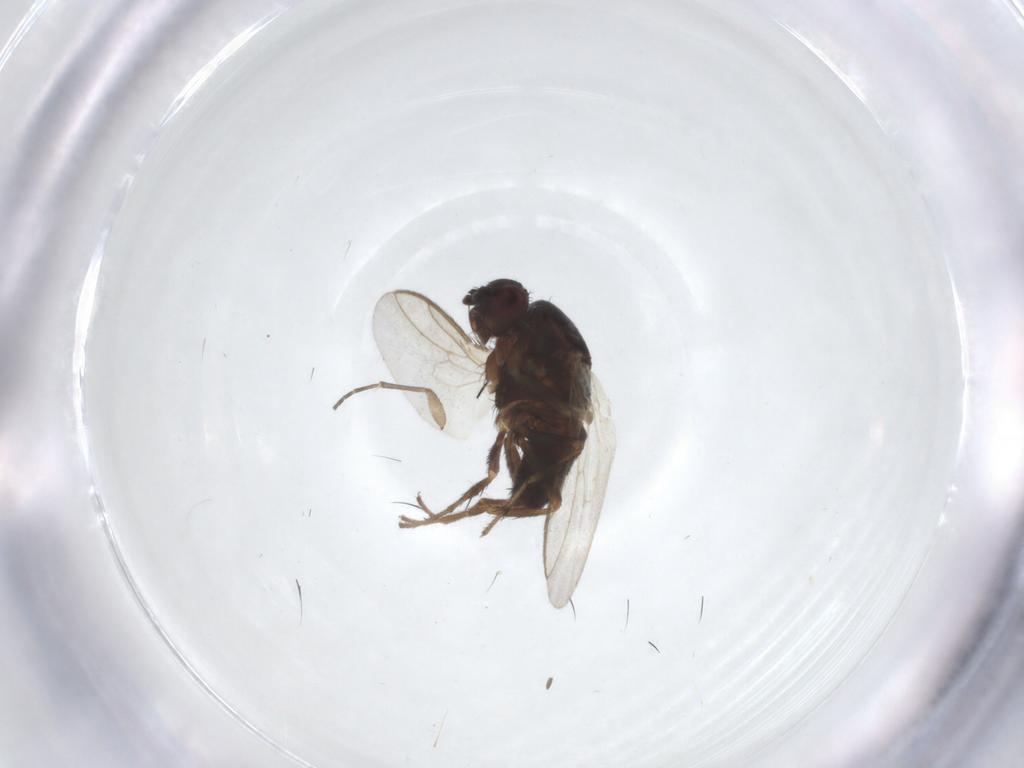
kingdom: Animalia
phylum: Arthropoda
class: Insecta
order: Diptera
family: Sphaeroceridae
